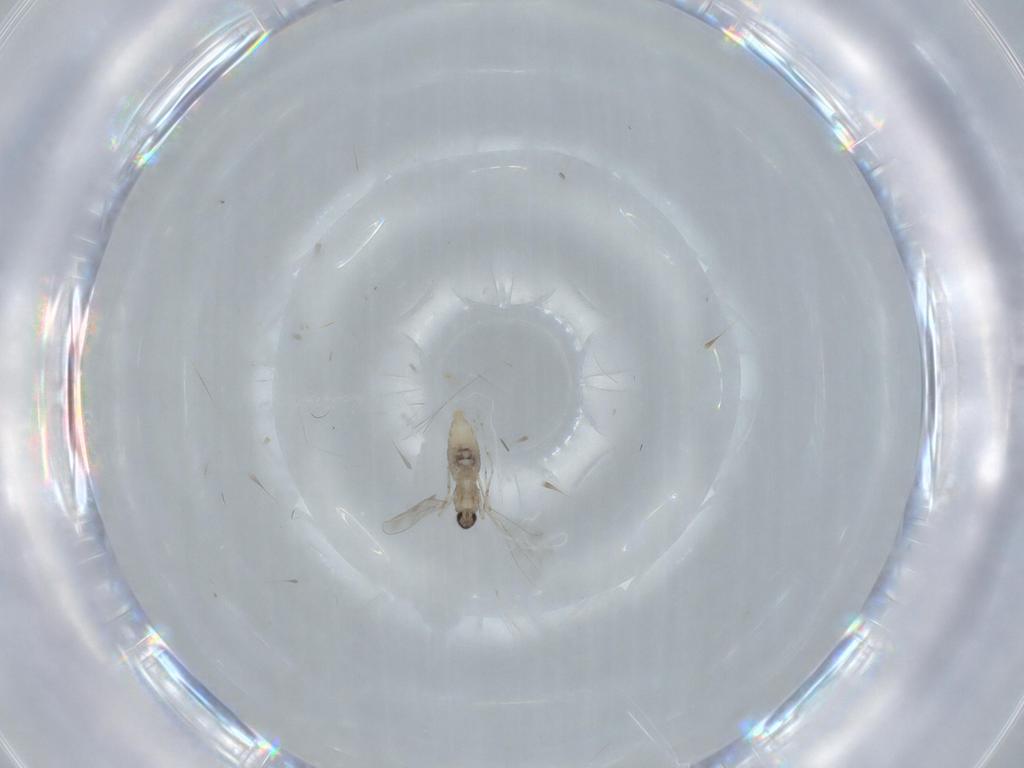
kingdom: Animalia
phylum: Arthropoda
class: Insecta
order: Diptera
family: Cecidomyiidae
